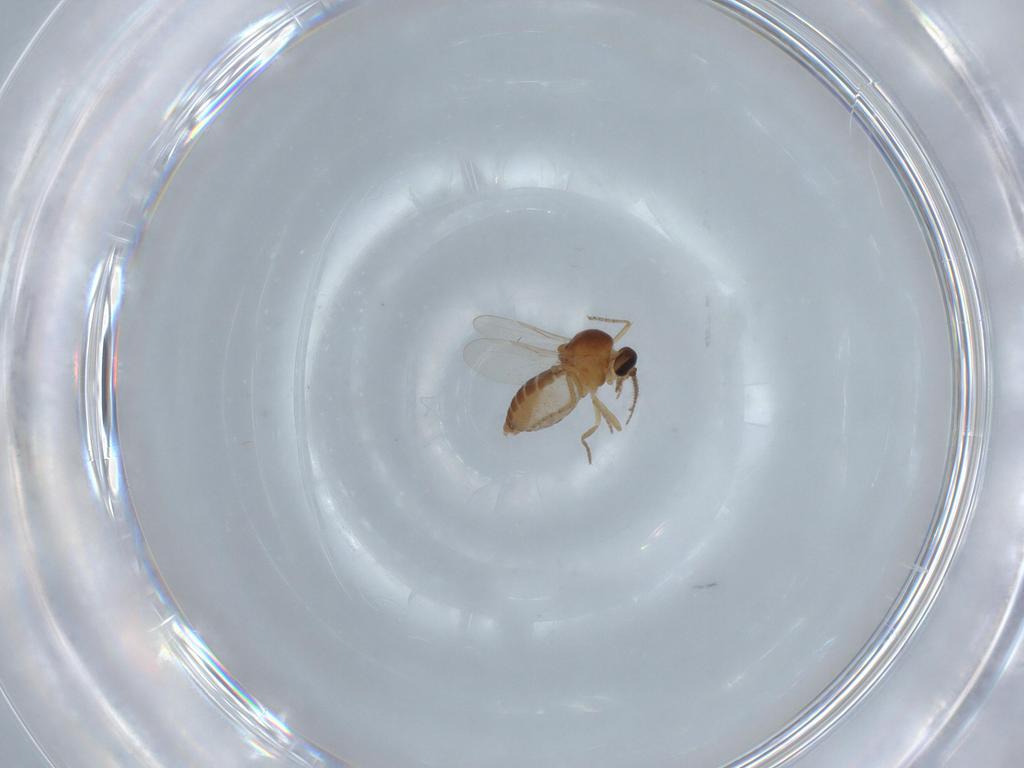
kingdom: Animalia
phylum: Arthropoda
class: Insecta
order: Diptera
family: Ceratopogonidae
